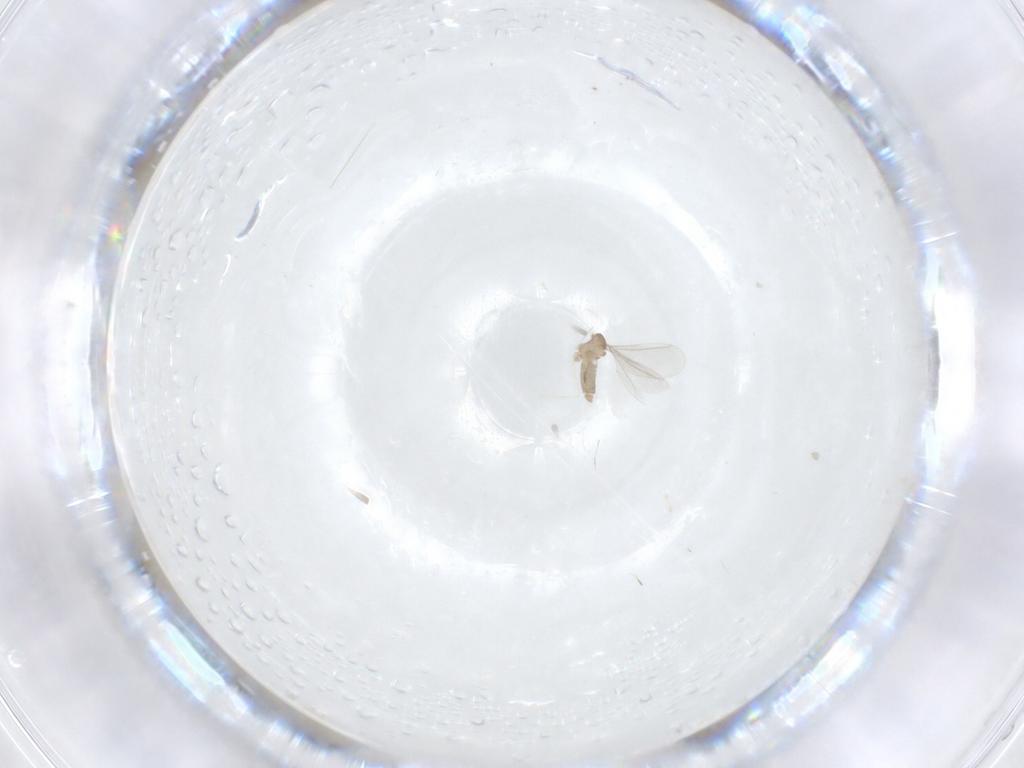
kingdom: Animalia
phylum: Arthropoda
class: Insecta
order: Diptera
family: Cecidomyiidae
